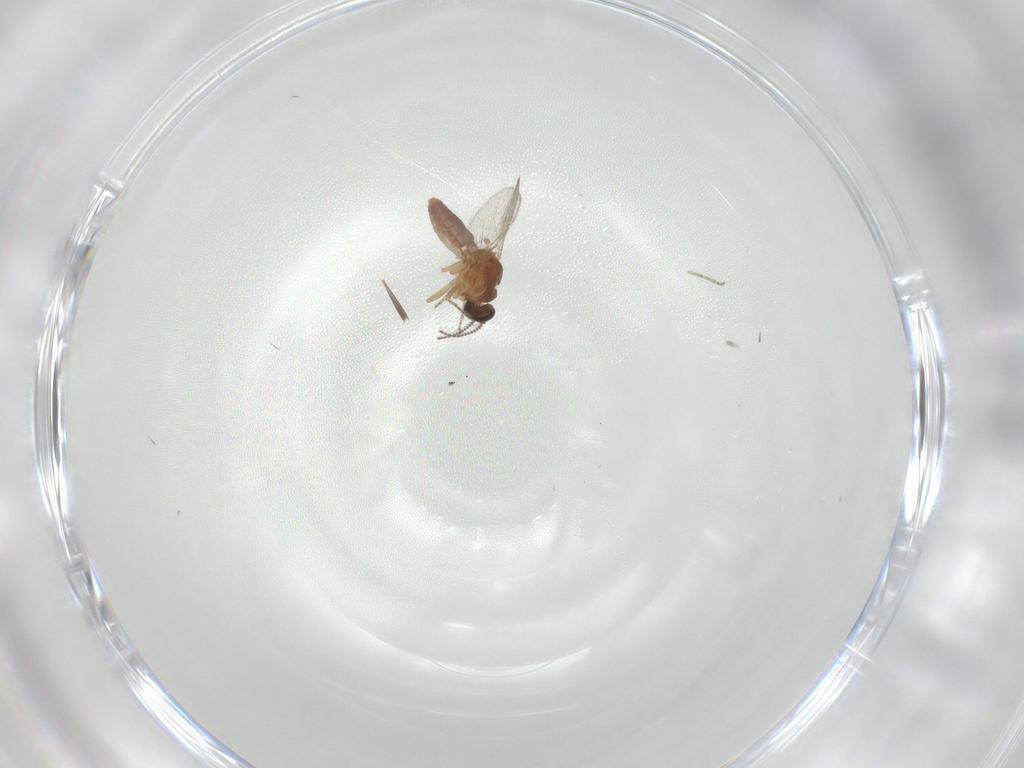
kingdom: Animalia
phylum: Arthropoda
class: Insecta
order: Diptera
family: Ceratopogonidae
